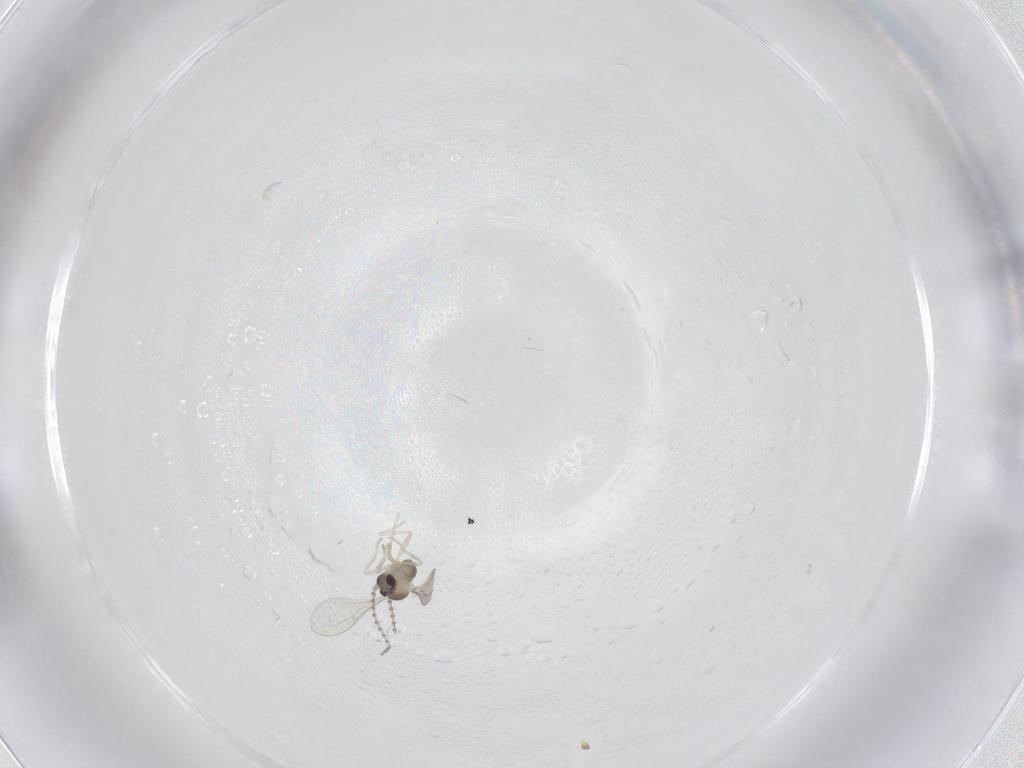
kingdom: Animalia
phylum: Arthropoda
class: Insecta
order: Diptera
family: Cecidomyiidae
